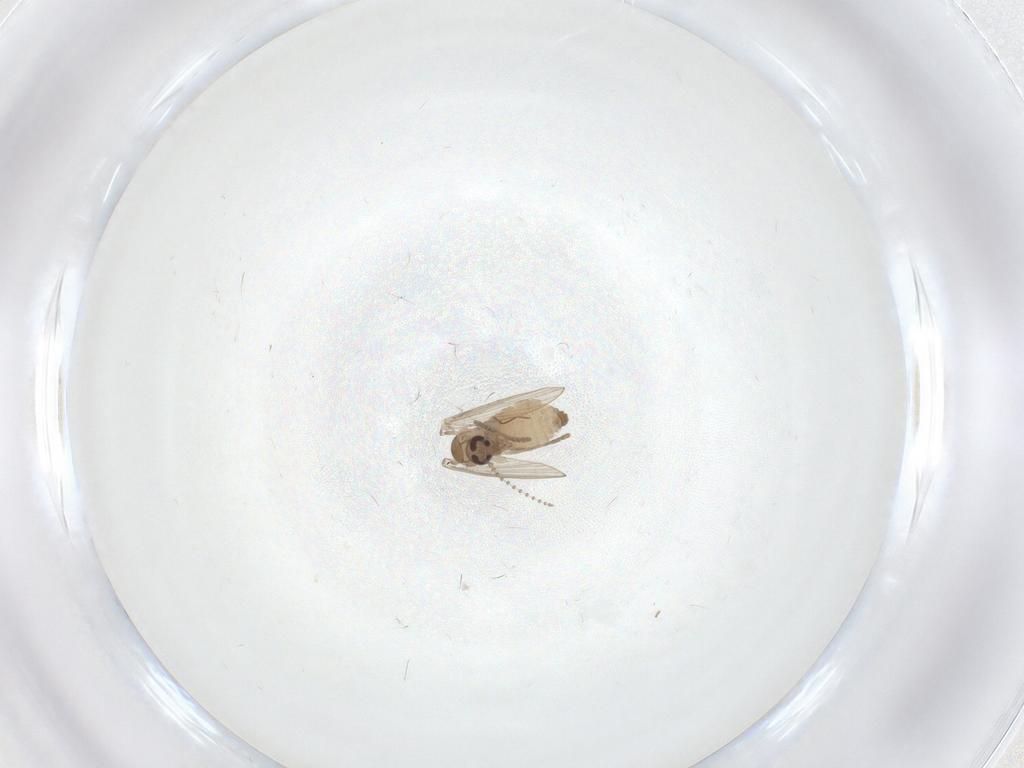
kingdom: Animalia
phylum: Arthropoda
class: Insecta
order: Diptera
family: Psychodidae
